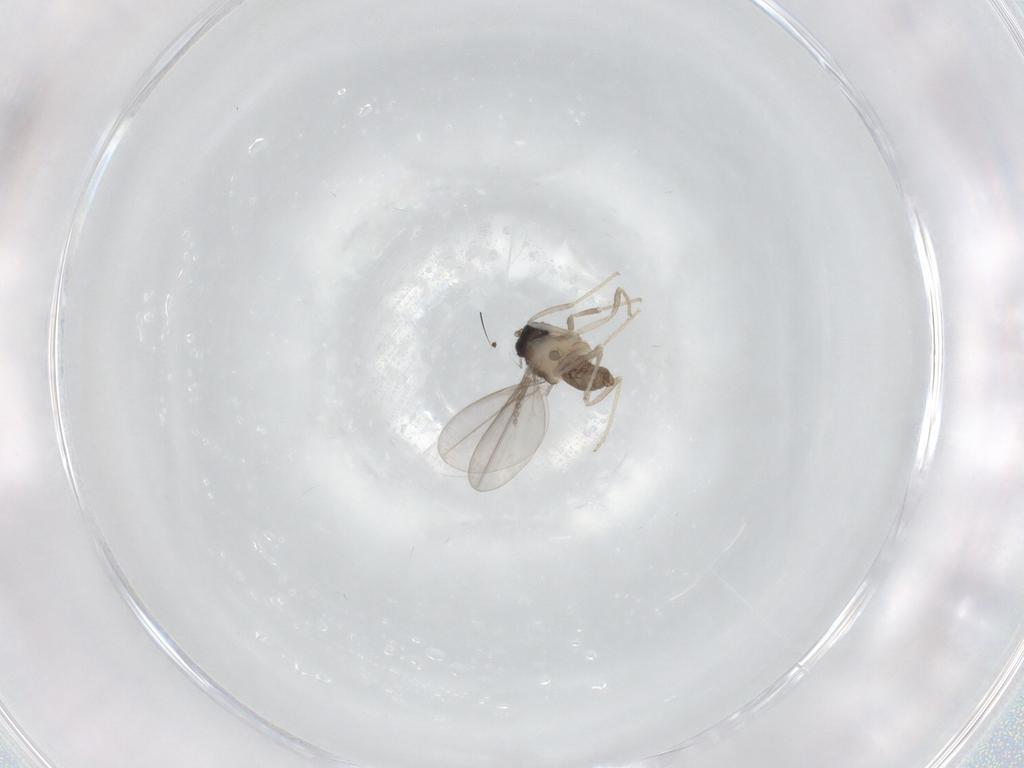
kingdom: Animalia
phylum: Arthropoda
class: Insecta
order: Diptera
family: Cecidomyiidae
